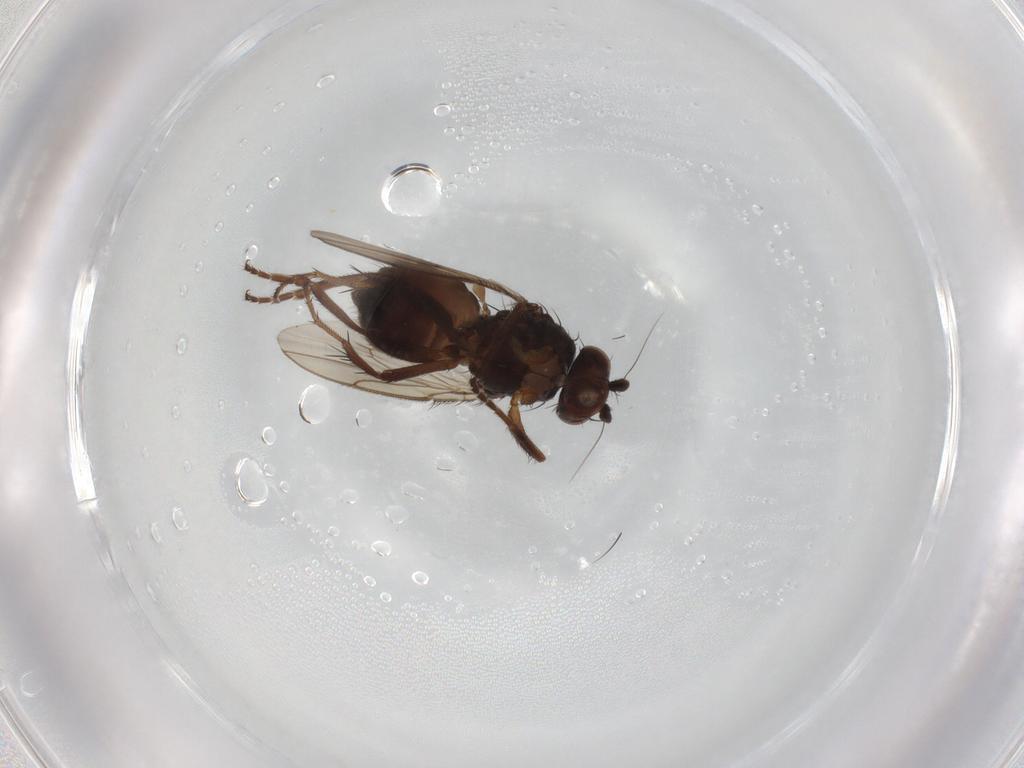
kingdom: Animalia
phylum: Arthropoda
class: Insecta
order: Diptera
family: Sphaeroceridae
